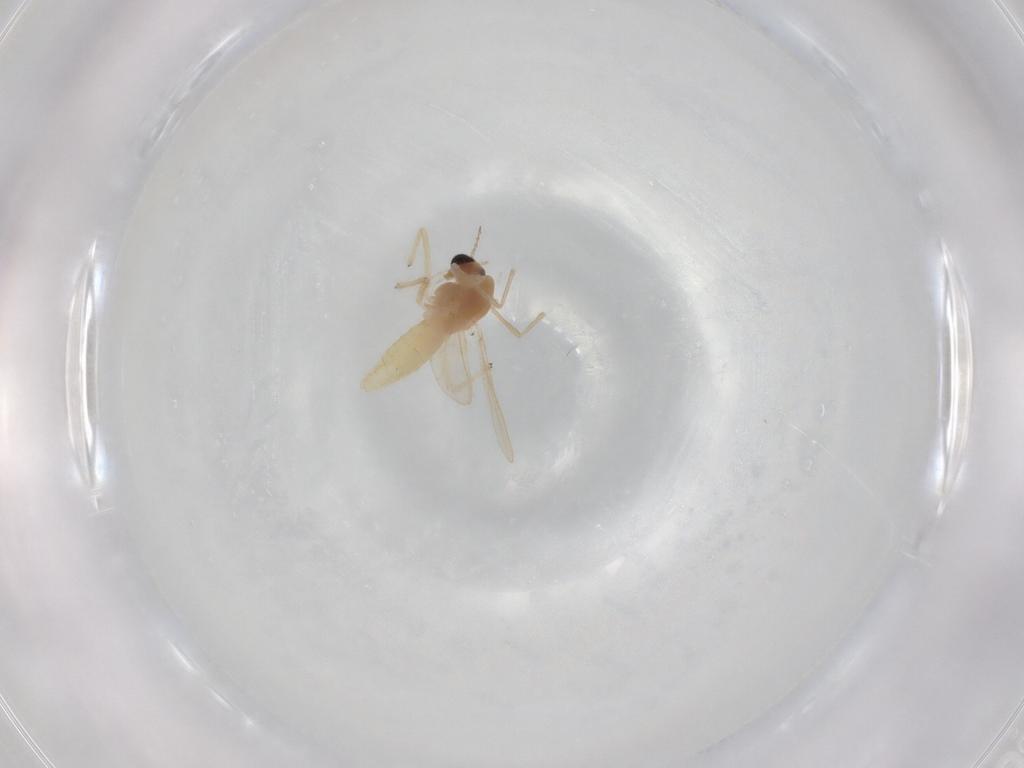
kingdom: Animalia
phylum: Arthropoda
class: Insecta
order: Diptera
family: Chironomidae
